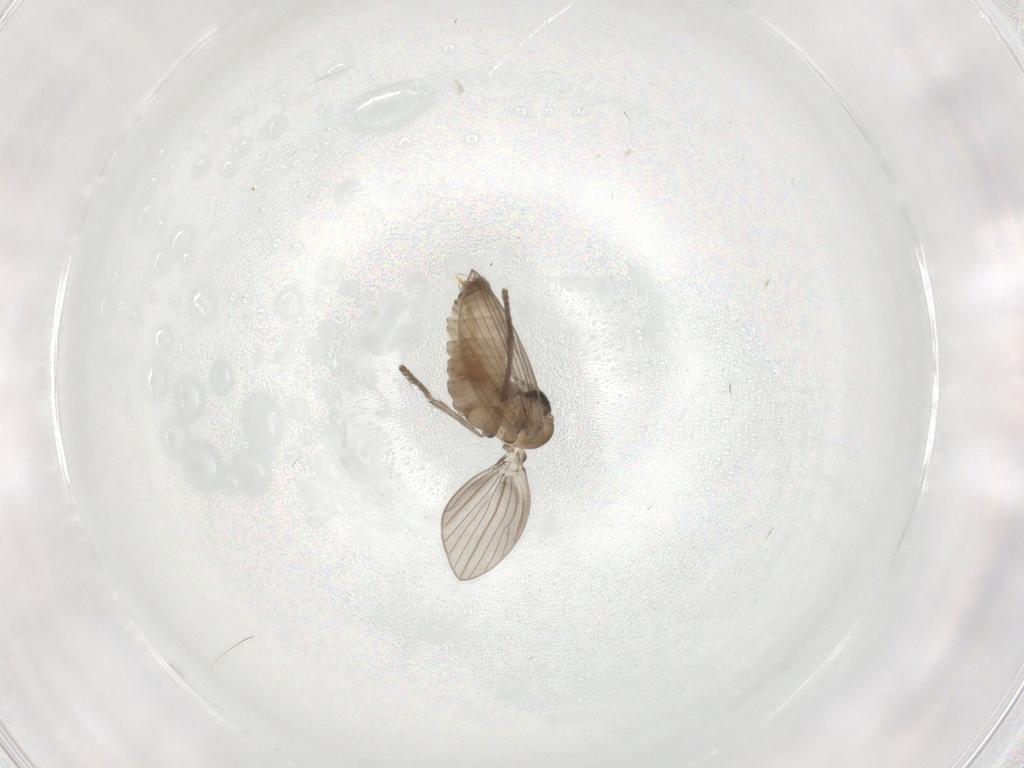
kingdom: Animalia
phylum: Arthropoda
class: Insecta
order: Diptera
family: Psychodidae
